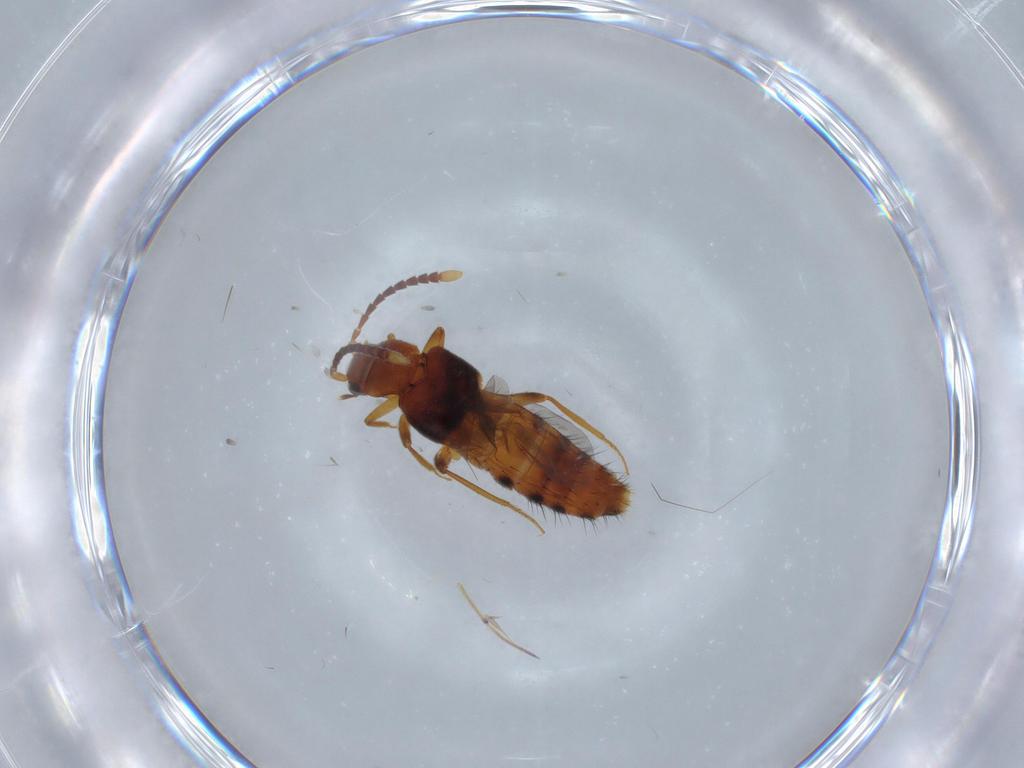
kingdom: Animalia
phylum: Arthropoda
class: Insecta
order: Coleoptera
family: Staphylinidae
